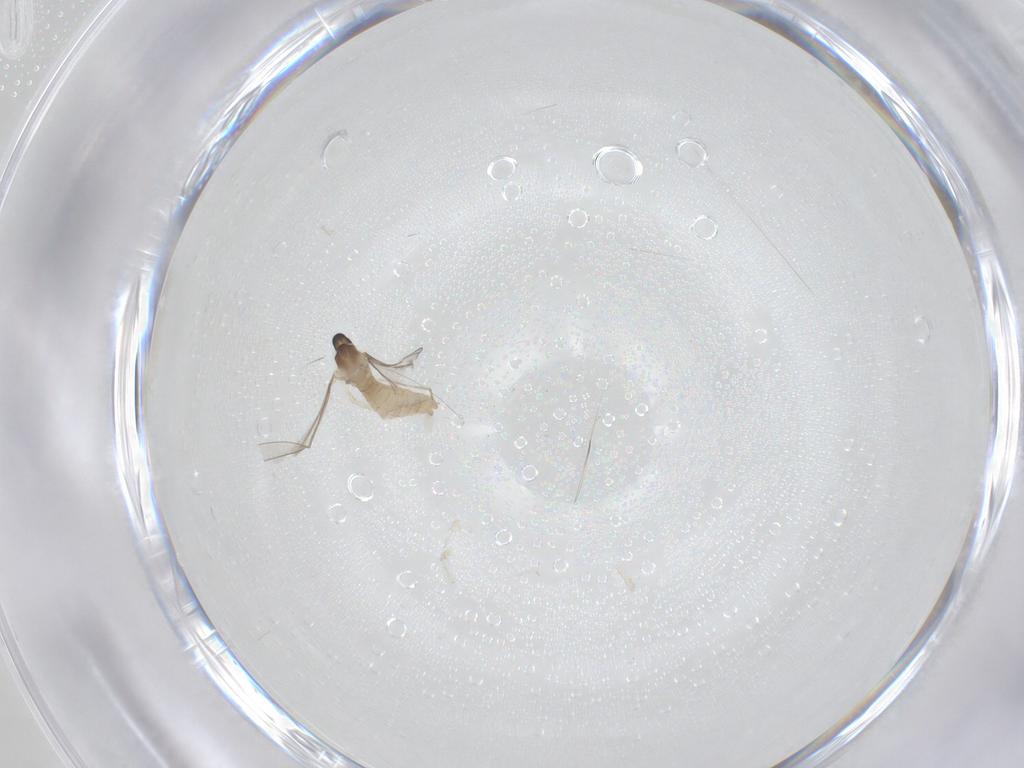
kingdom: Animalia
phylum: Arthropoda
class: Insecta
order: Diptera
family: Cecidomyiidae
